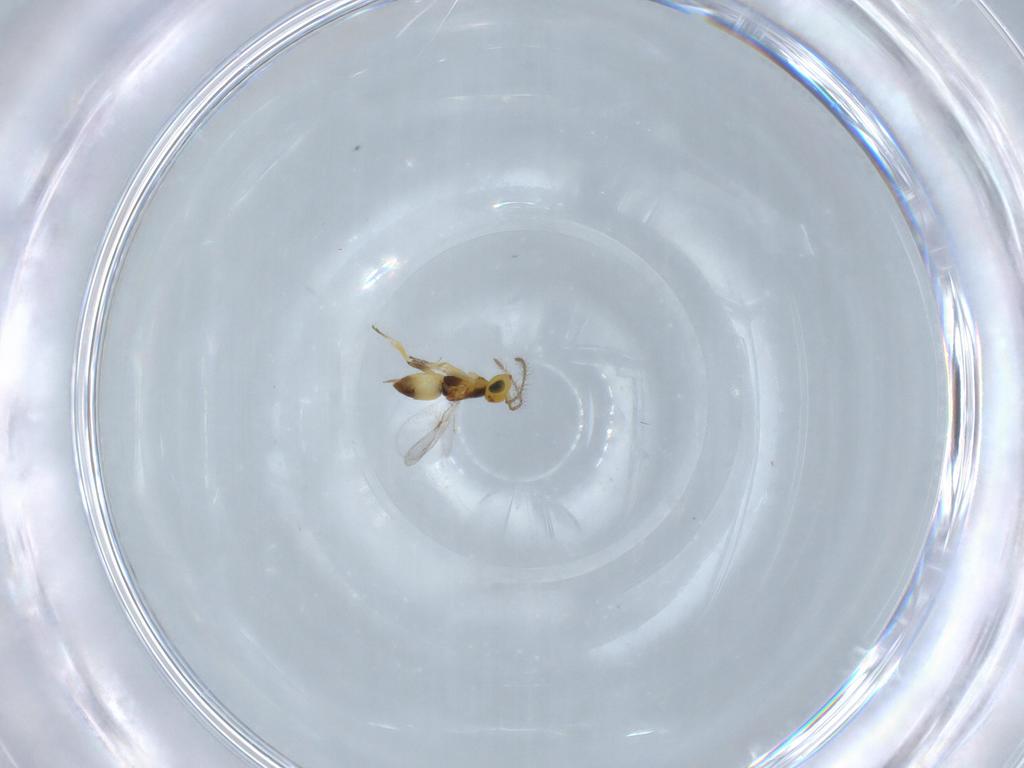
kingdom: Animalia
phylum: Arthropoda
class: Insecta
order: Hymenoptera
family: Encyrtidae
